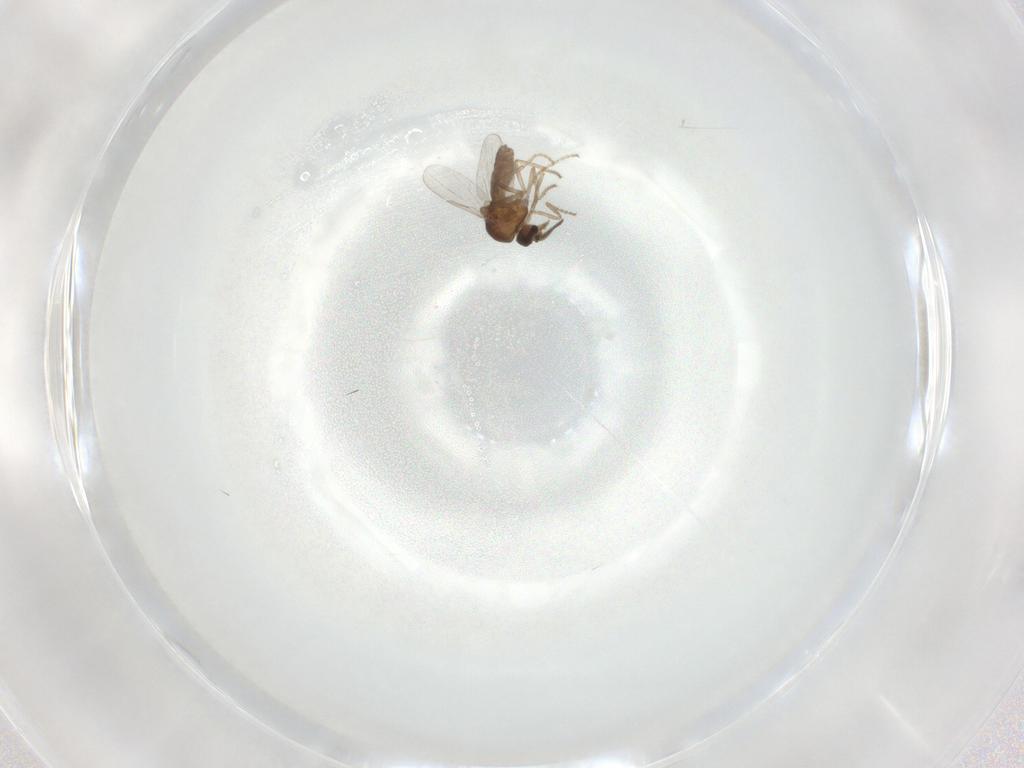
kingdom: Animalia
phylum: Arthropoda
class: Insecta
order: Diptera
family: Ceratopogonidae
